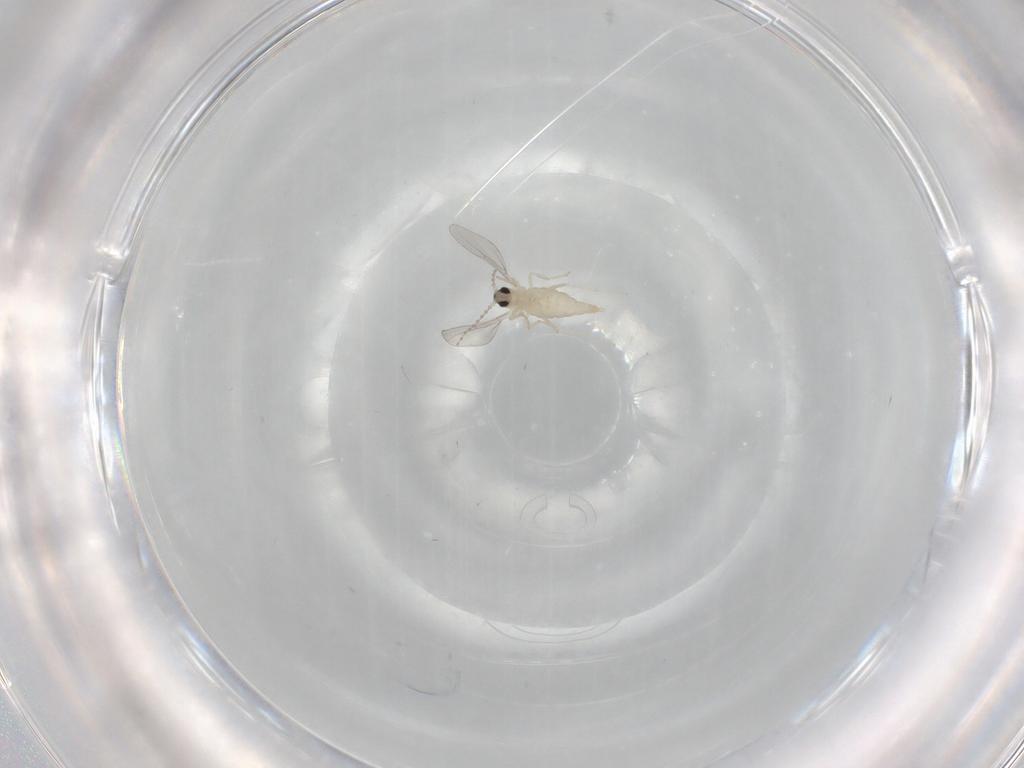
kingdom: Animalia
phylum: Arthropoda
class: Insecta
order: Diptera
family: Cecidomyiidae
